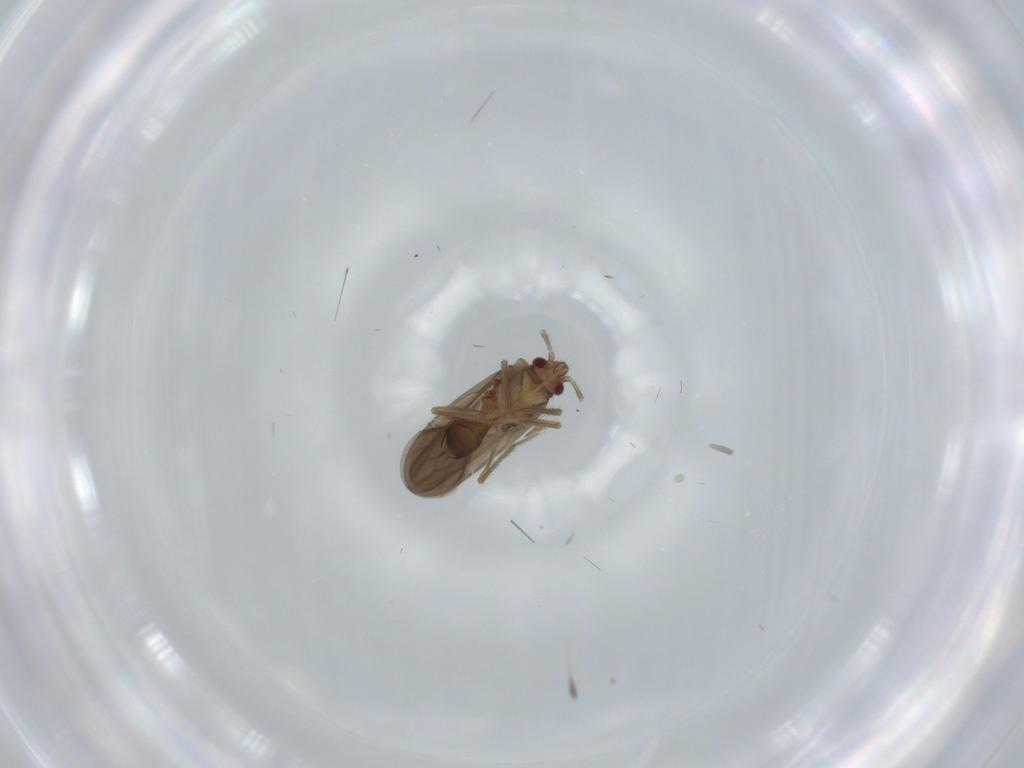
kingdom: Animalia
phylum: Arthropoda
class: Insecta
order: Hemiptera
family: Ceratocombidae
